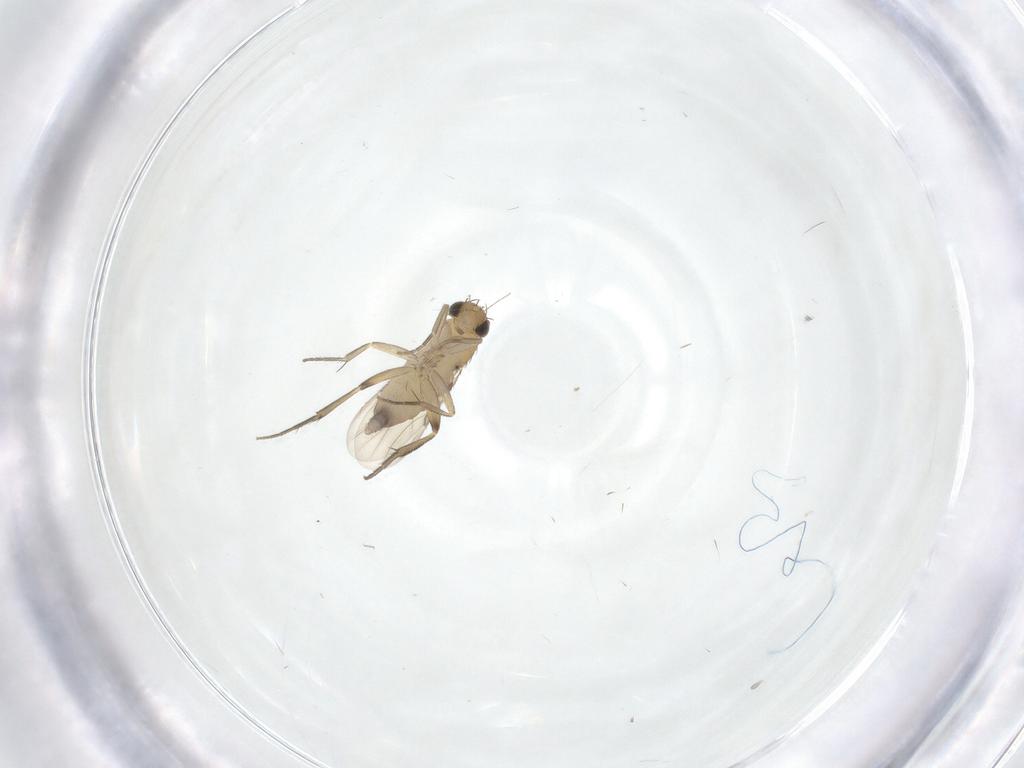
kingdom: Animalia
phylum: Arthropoda
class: Insecta
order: Diptera
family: Phoridae
